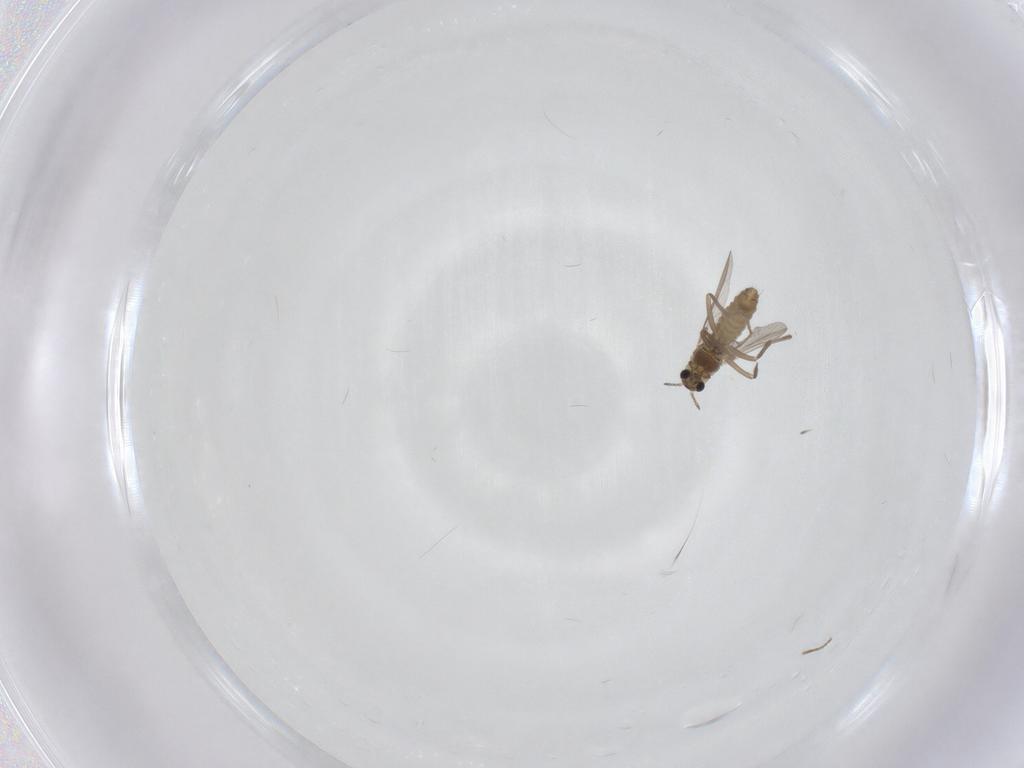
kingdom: Animalia
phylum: Arthropoda
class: Insecta
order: Diptera
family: Chironomidae
